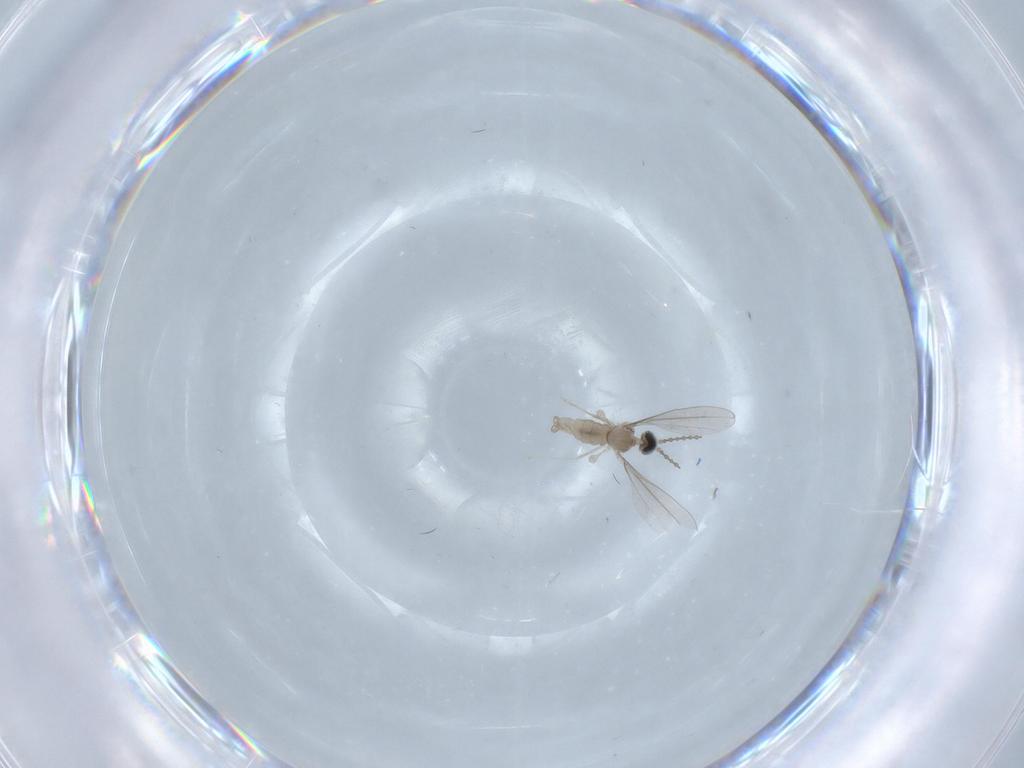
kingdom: Animalia
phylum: Arthropoda
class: Insecta
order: Diptera
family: Cecidomyiidae
